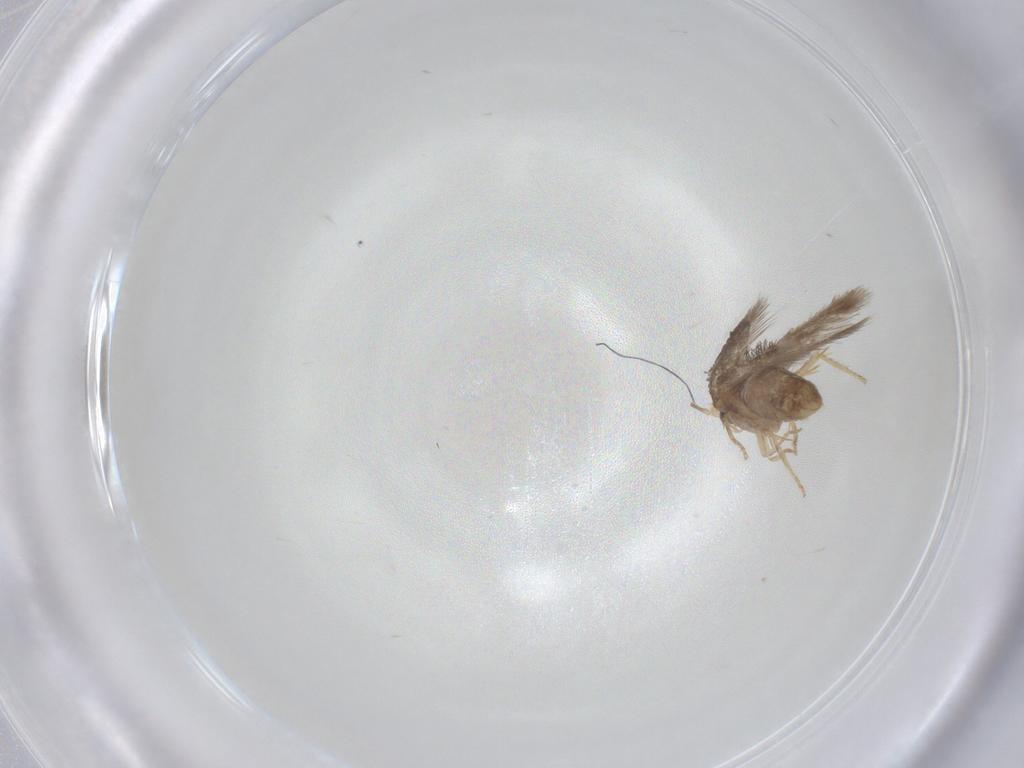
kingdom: Animalia
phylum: Arthropoda
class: Insecta
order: Lepidoptera
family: Nepticulidae
